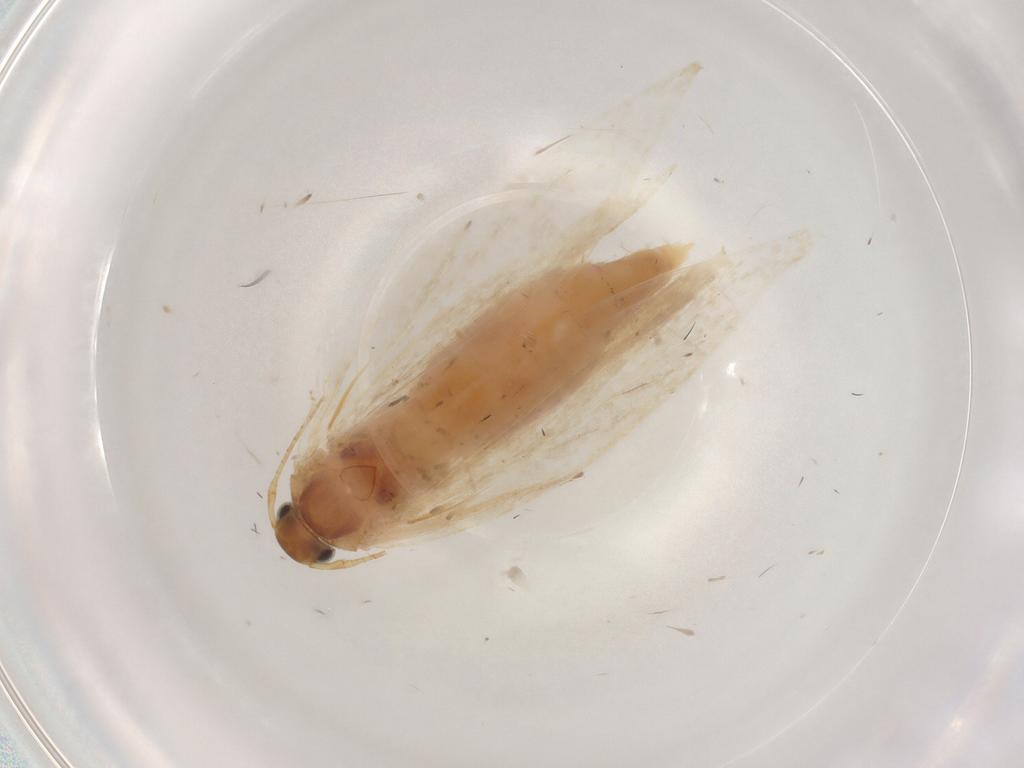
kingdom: Animalia
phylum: Arthropoda
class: Insecta
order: Lepidoptera
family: Gelechiidae
